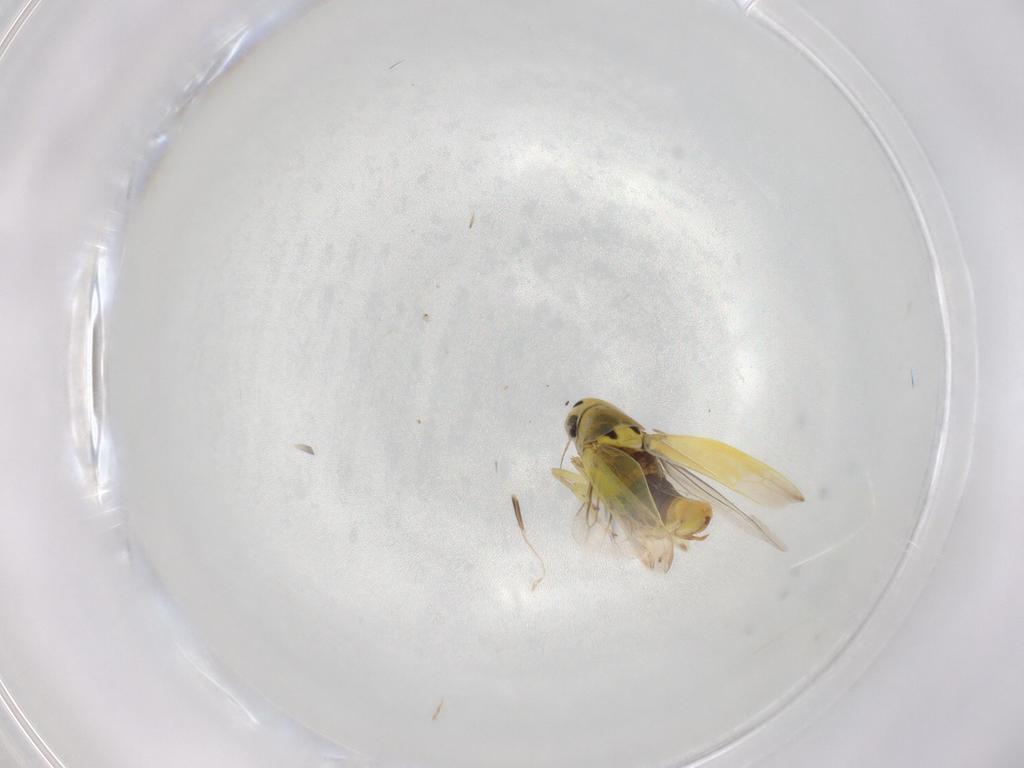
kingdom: Animalia
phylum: Arthropoda
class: Insecta
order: Hemiptera
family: Cicadellidae
